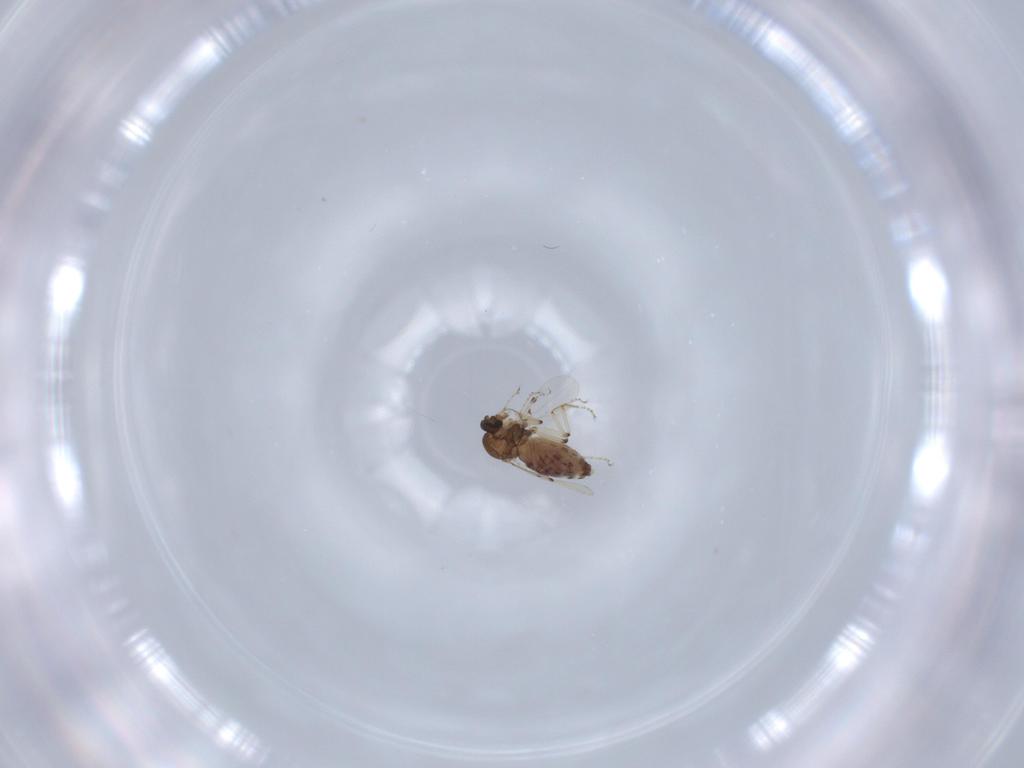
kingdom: Animalia
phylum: Arthropoda
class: Insecta
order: Diptera
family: Ceratopogonidae
